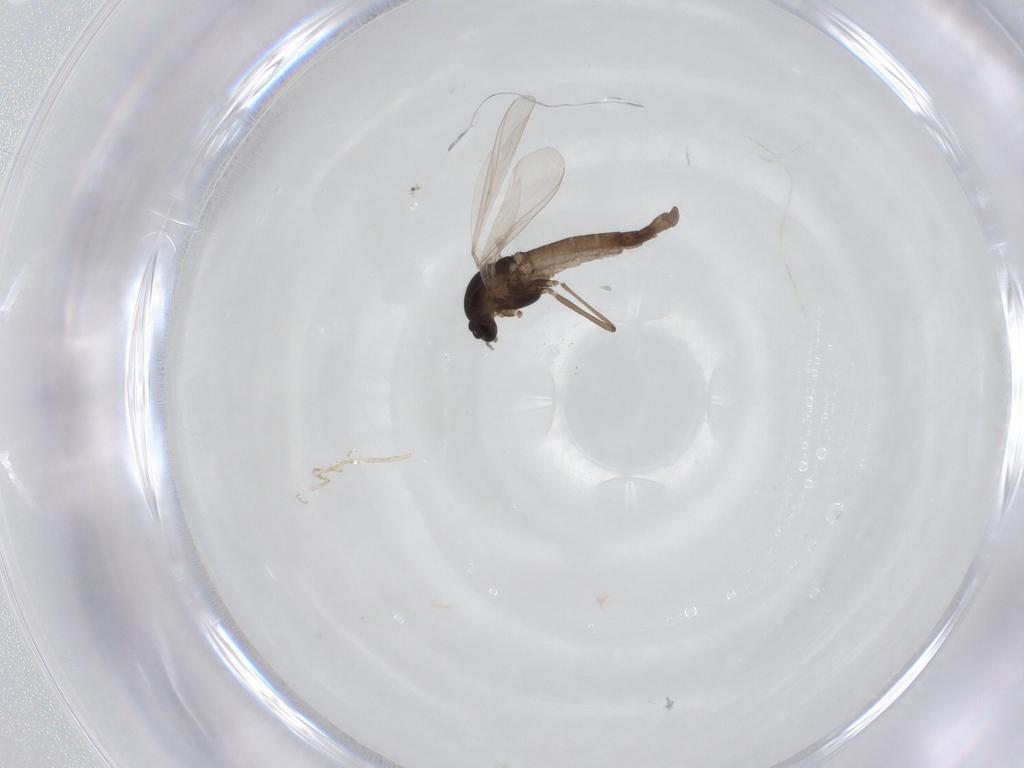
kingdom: Animalia
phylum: Arthropoda
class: Insecta
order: Diptera
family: Chironomidae
